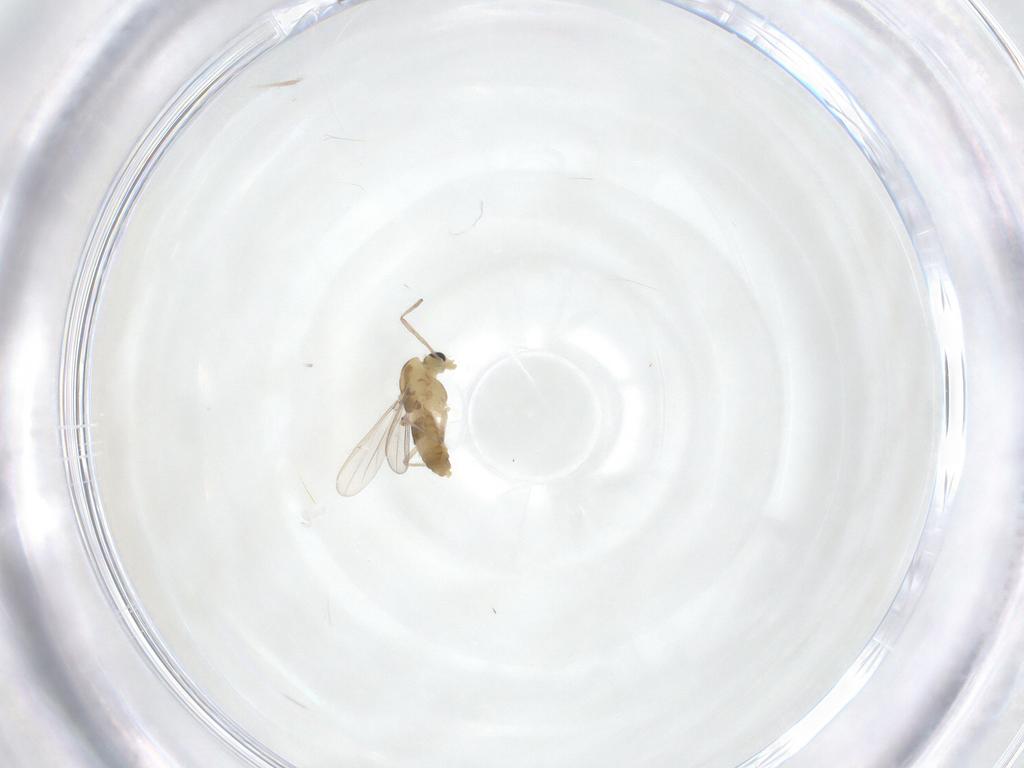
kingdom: Animalia
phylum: Arthropoda
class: Insecta
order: Diptera
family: Chironomidae
